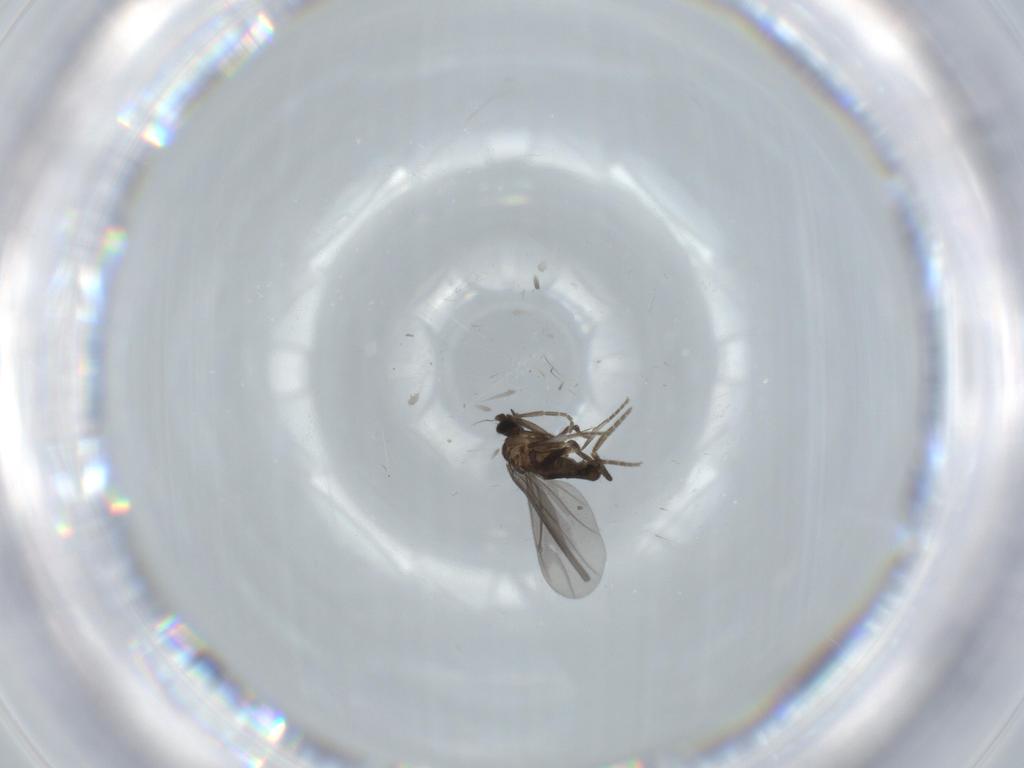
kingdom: Animalia
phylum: Arthropoda
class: Insecta
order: Diptera
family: Phoridae
